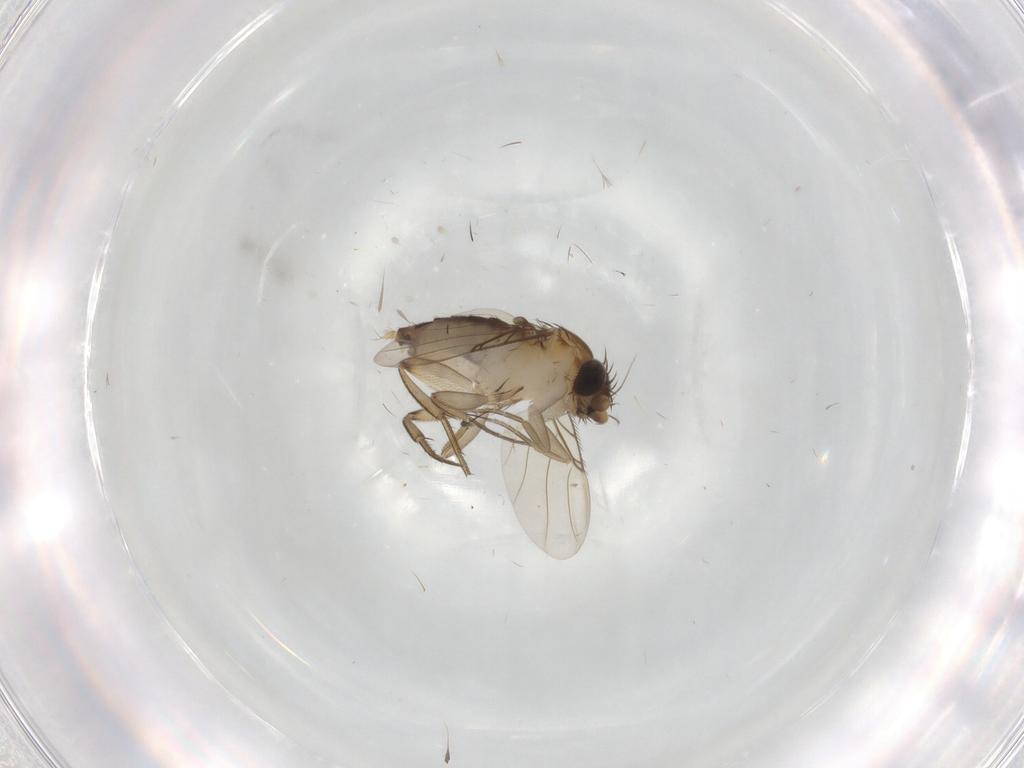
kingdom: Animalia
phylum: Arthropoda
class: Insecta
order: Diptera
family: Phoridae
